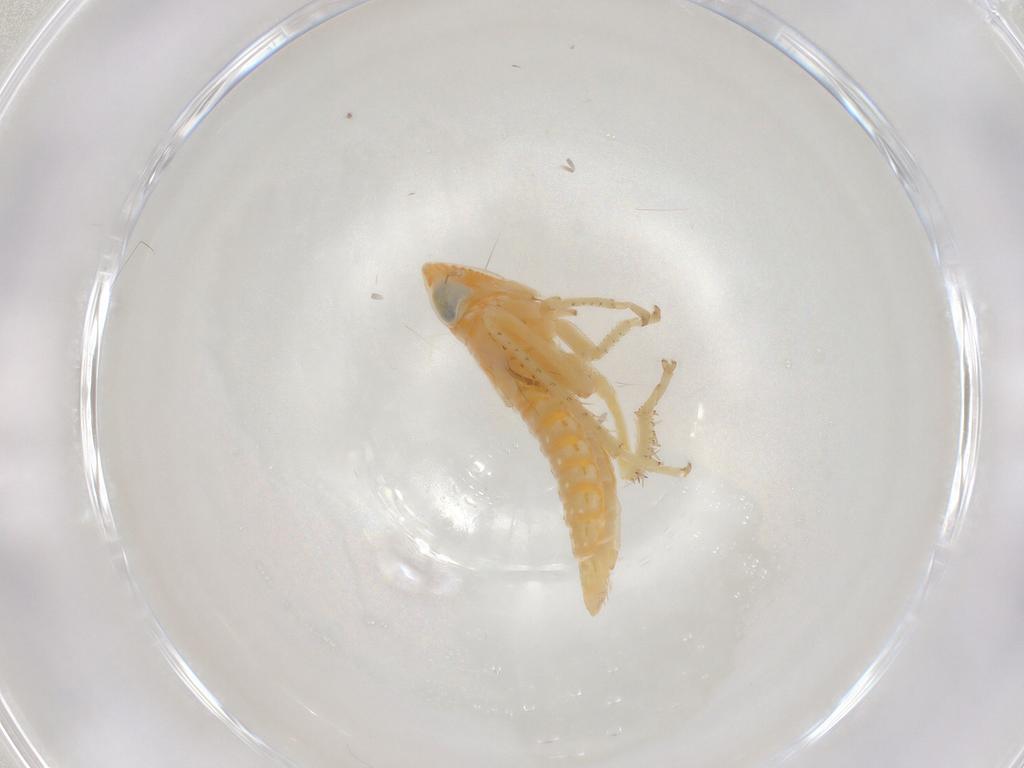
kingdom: Animalia
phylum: Arthropoda
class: Insecta
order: Hemiptera
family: Cicadellidae
